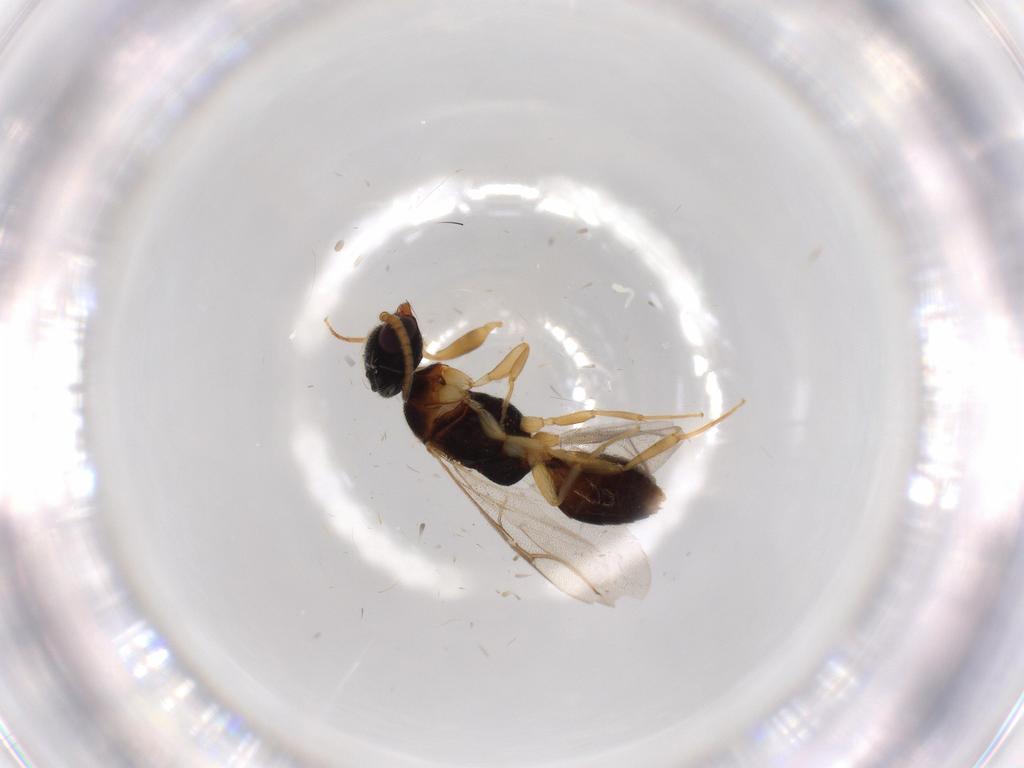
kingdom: Animalia
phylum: Arthropoda
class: Insecta
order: Hymenoptera
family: Bethylidae
